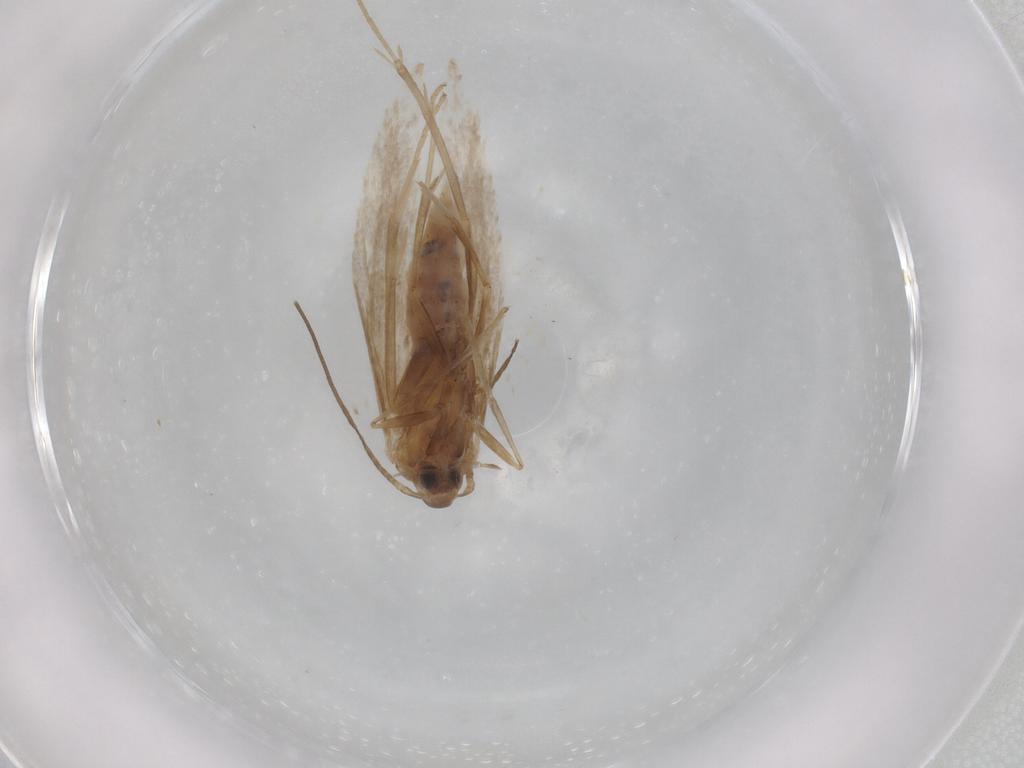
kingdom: Animalia
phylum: Arthropoda
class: Insecta
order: Lepidoptera
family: Coleophoridae
